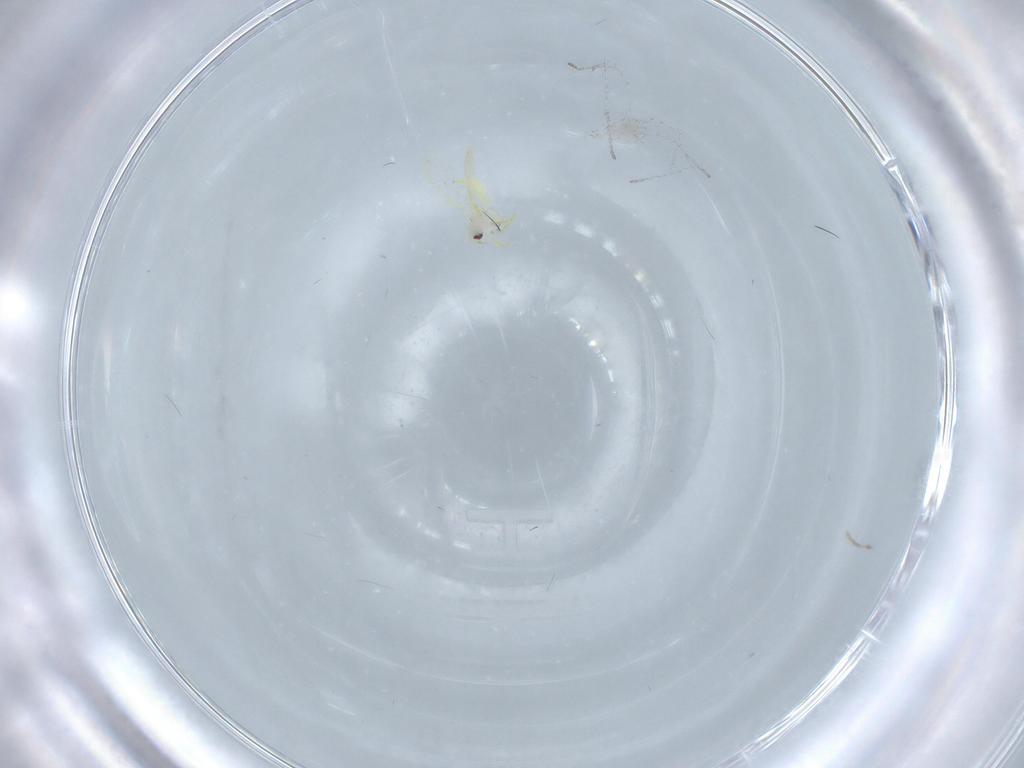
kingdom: Animalia
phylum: Arthropoda
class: Insecta
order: Hemiptera
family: Aleyrodidae
